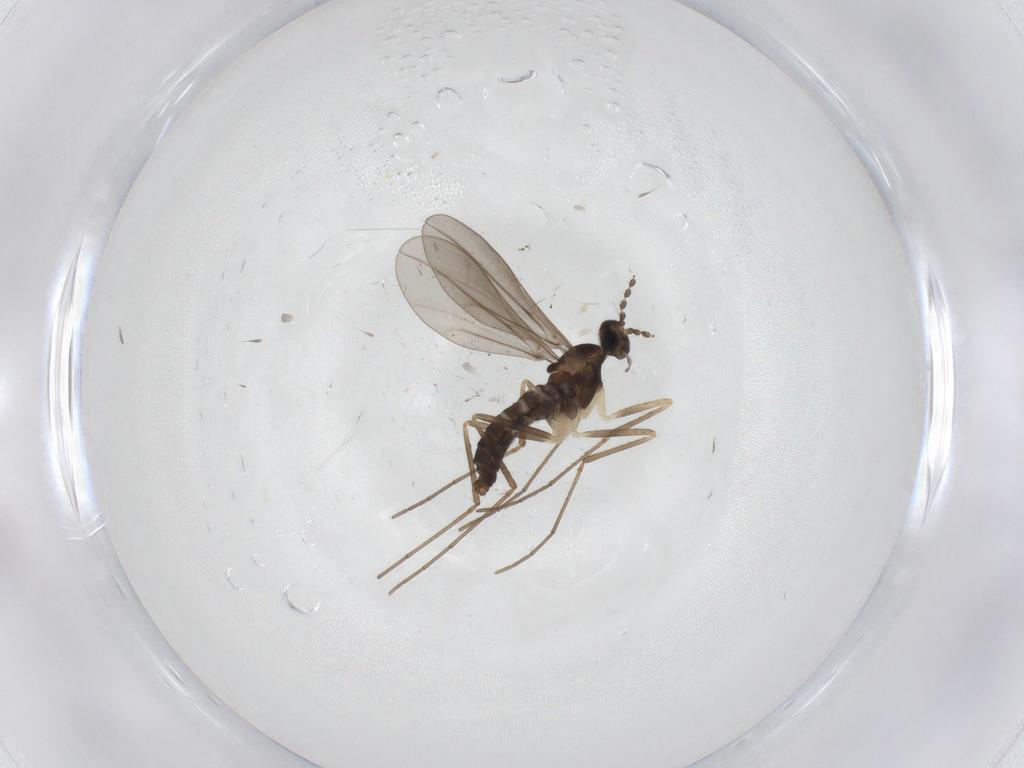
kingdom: Animalia
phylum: Arthropoda
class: Insecta
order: Diptera
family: Cecidomyiidae
